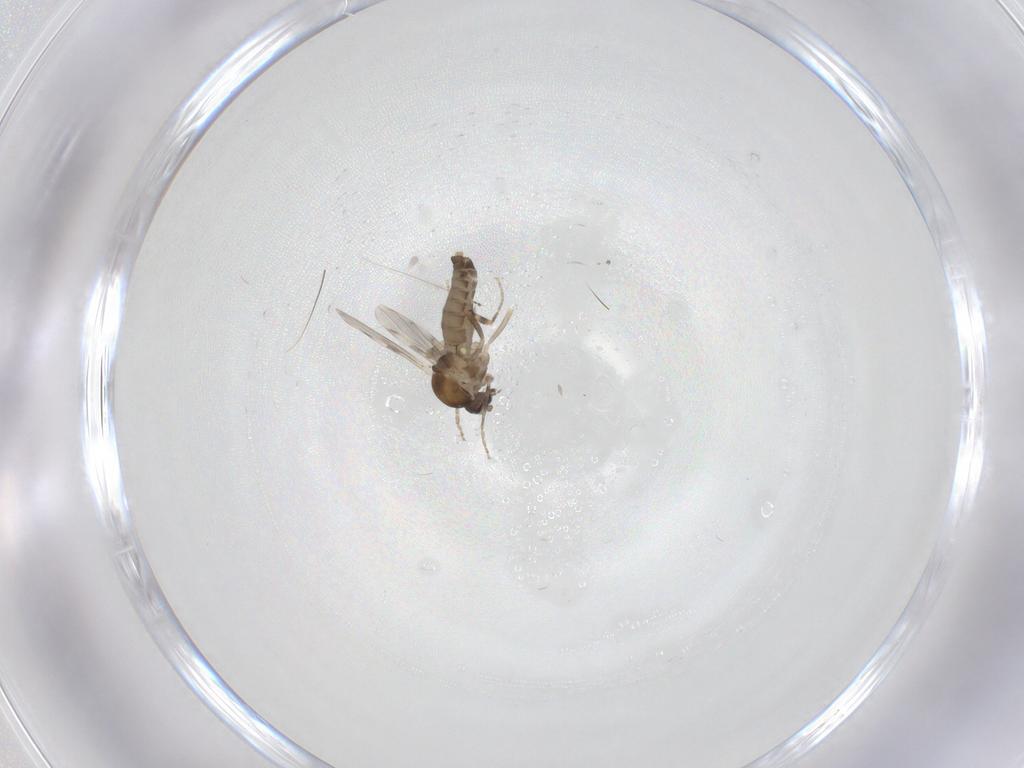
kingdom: Animalia
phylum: Arthropoda
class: Insecta
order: Diptera
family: Ceratopogonidae
